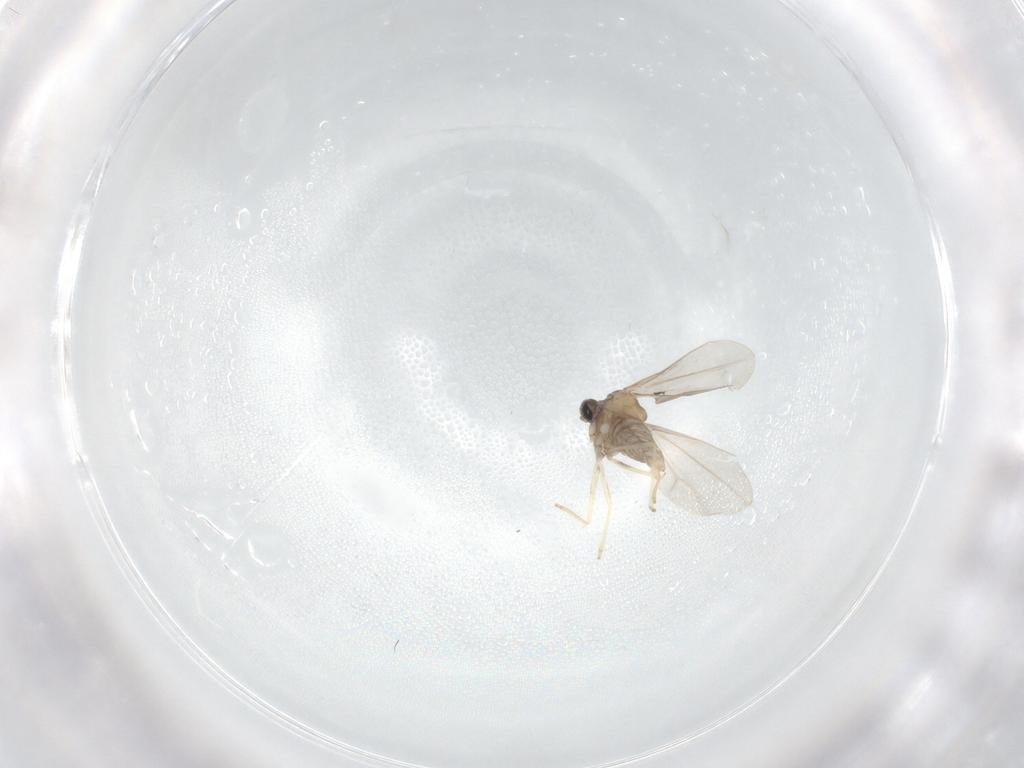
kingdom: Animalia
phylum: Arthropoda
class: Insecta
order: Diptera
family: Cecidomyiidae
